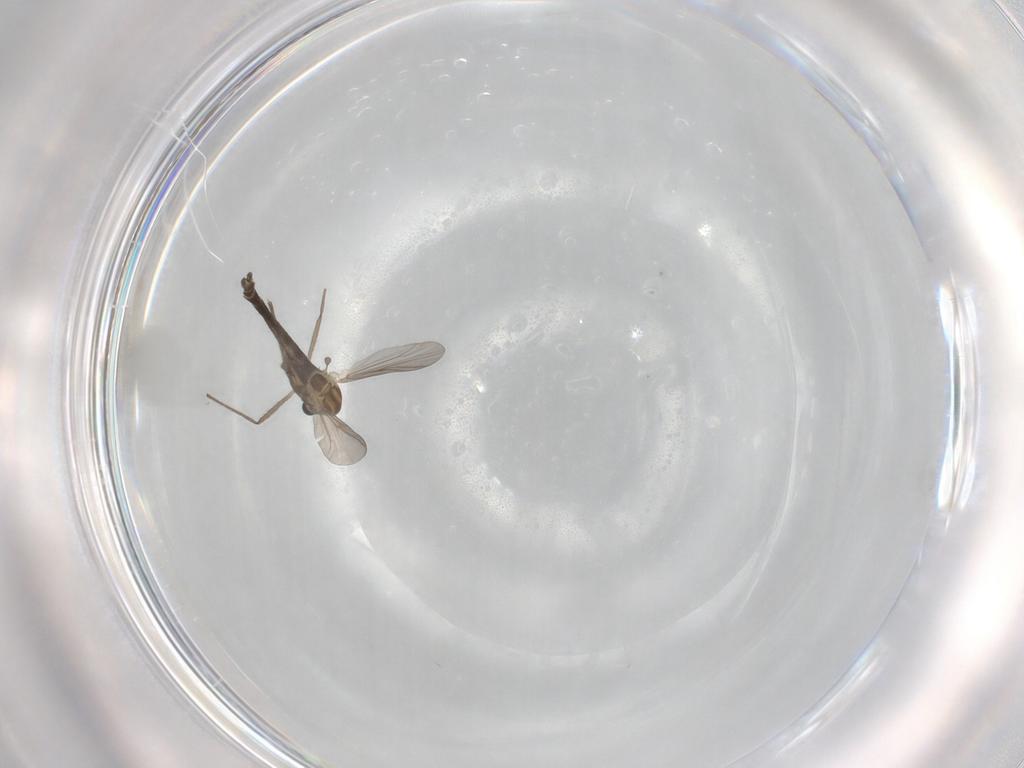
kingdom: Animalia
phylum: Arthropoda
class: Insecta
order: Diptera
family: Chironomidae
